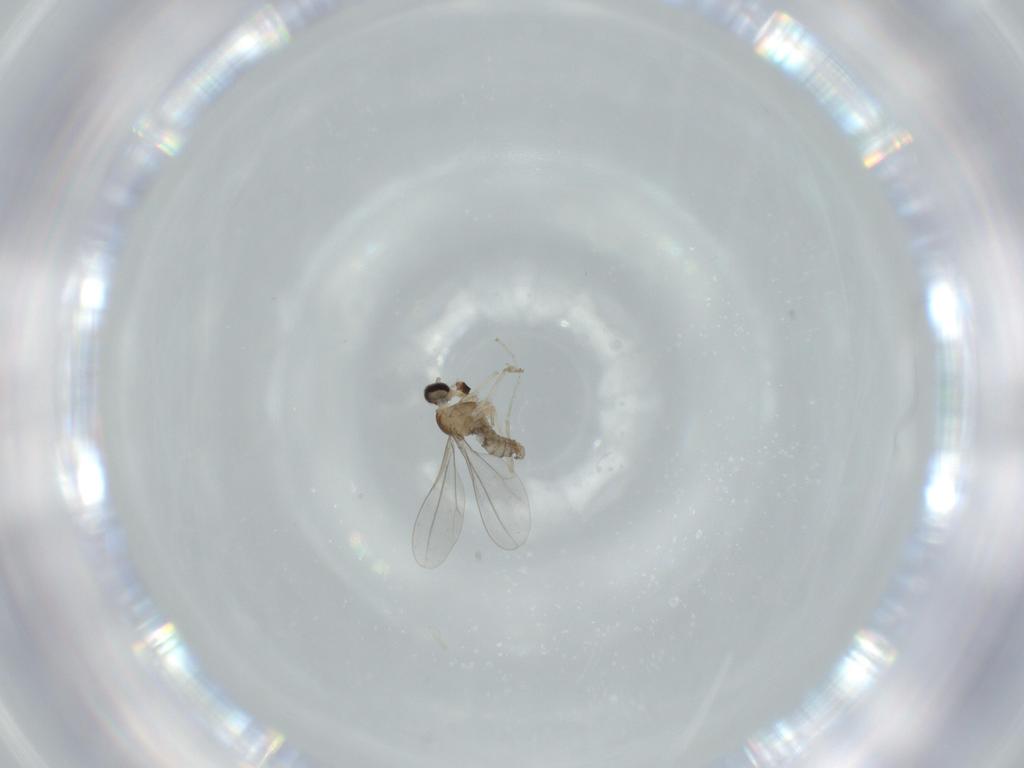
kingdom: Animalia
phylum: Arthropoda
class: Insecta
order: Diptera
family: Cecidomyiidae
